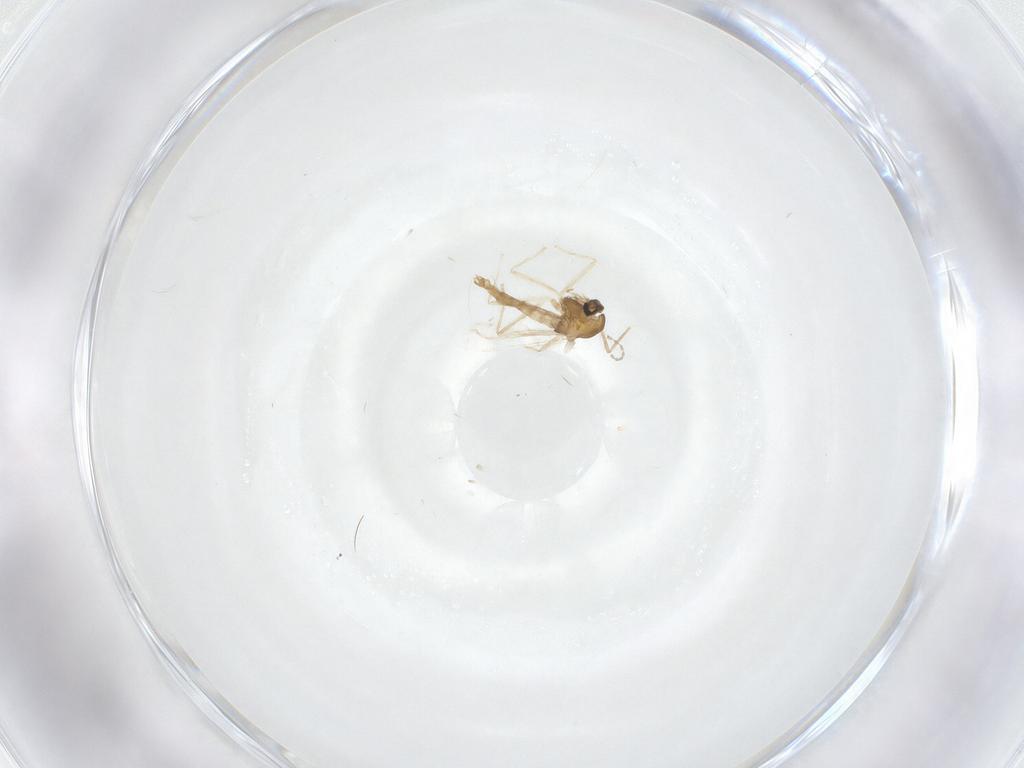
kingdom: Animalia
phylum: Arthropoda
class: Insecta
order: Diptera
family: Chironomidae
